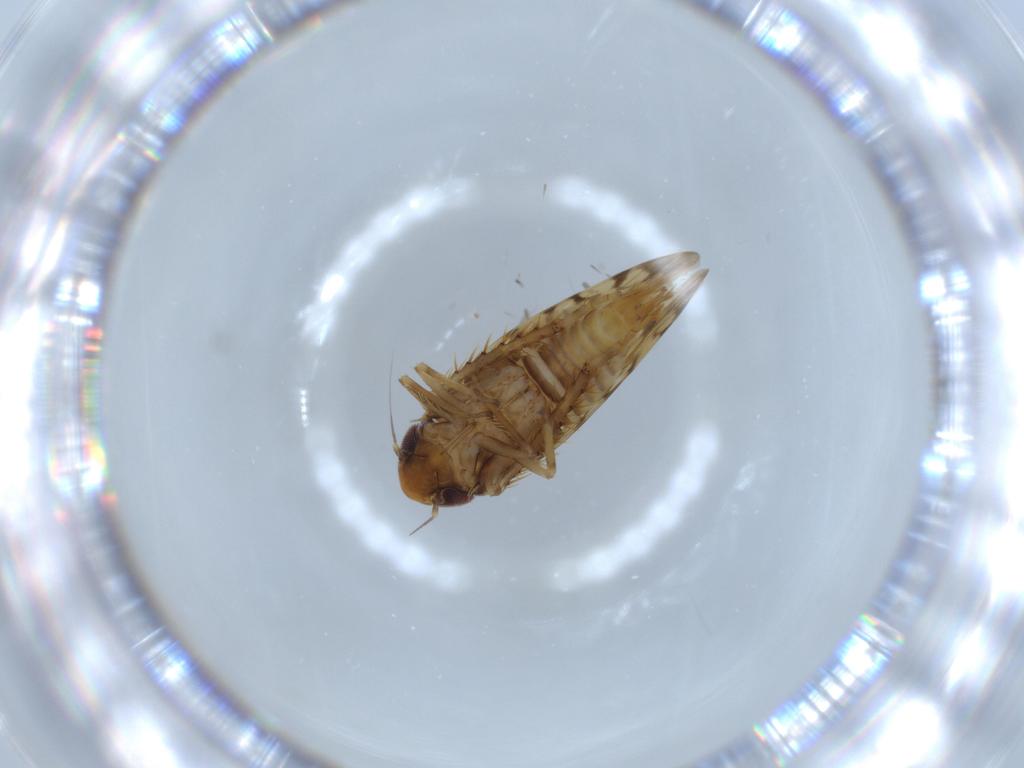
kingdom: Animalia
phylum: Arthropoda
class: Insecta
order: Hemiptera
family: Cicadellidae
